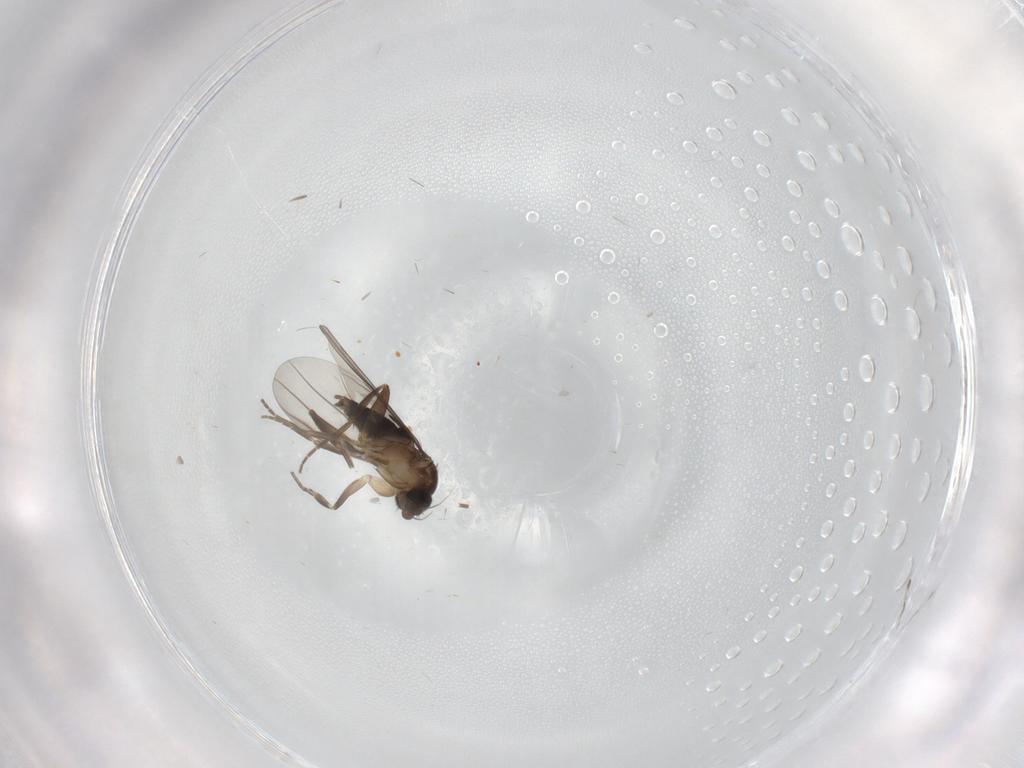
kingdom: Animalia
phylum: Arthropoda
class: Insecta
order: Diptera
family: Phoridae
